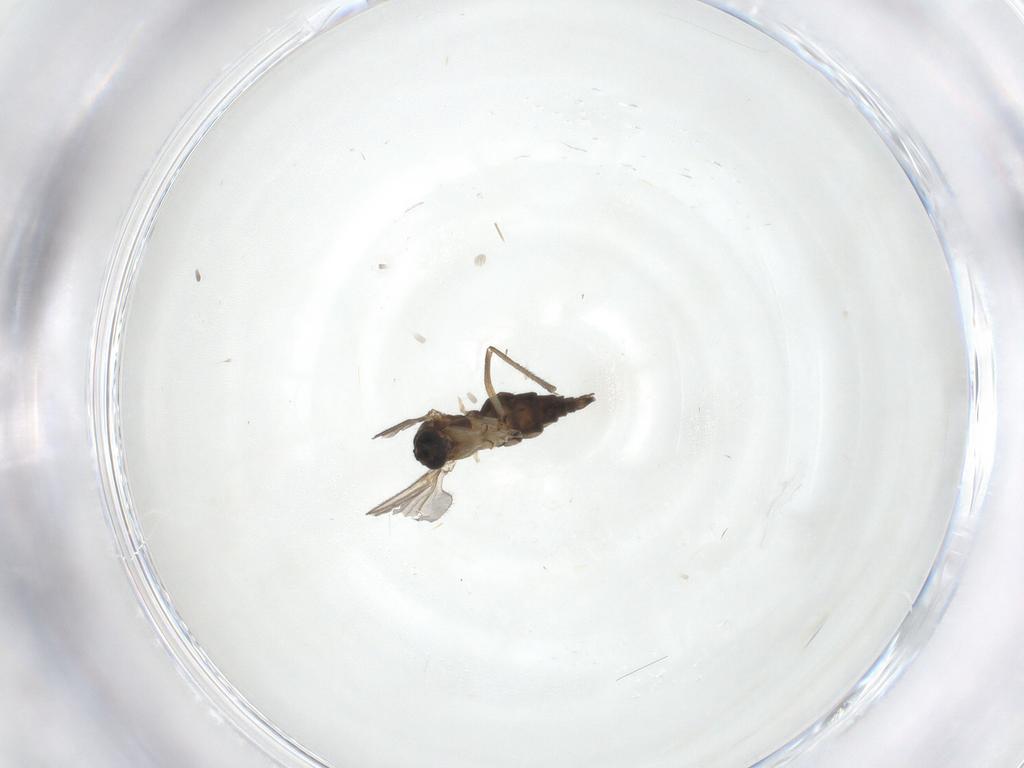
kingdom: Animalia
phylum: Arthropoda
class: Insecta
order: Diptera
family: Sciaridae
